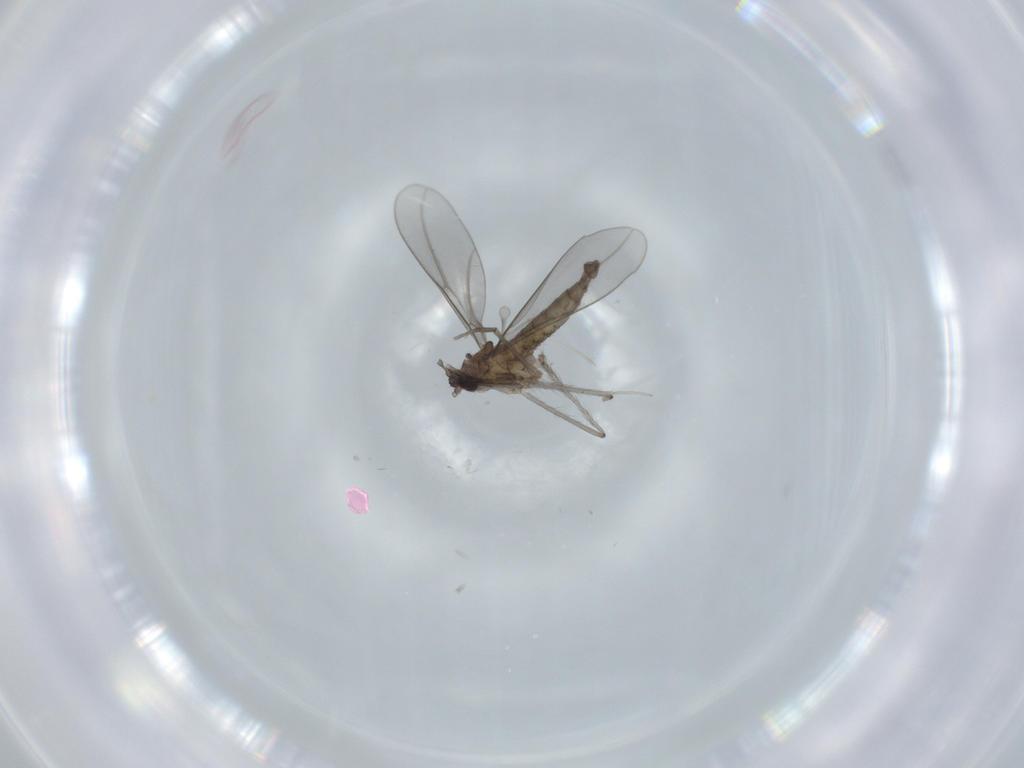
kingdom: Animalia
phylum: Arthropoda
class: Insecta
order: Diptera
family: Cecidomyiidae
